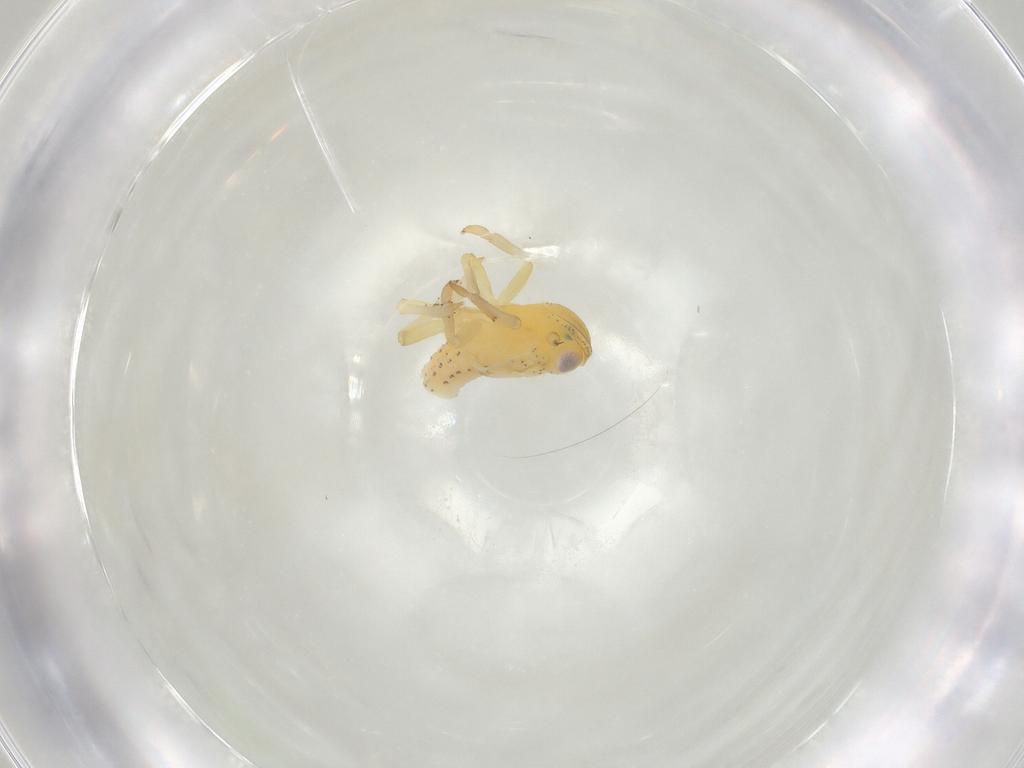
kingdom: Animalia
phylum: Arthropoda
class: Insecta
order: Hemiptera
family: Tropiduchidae
